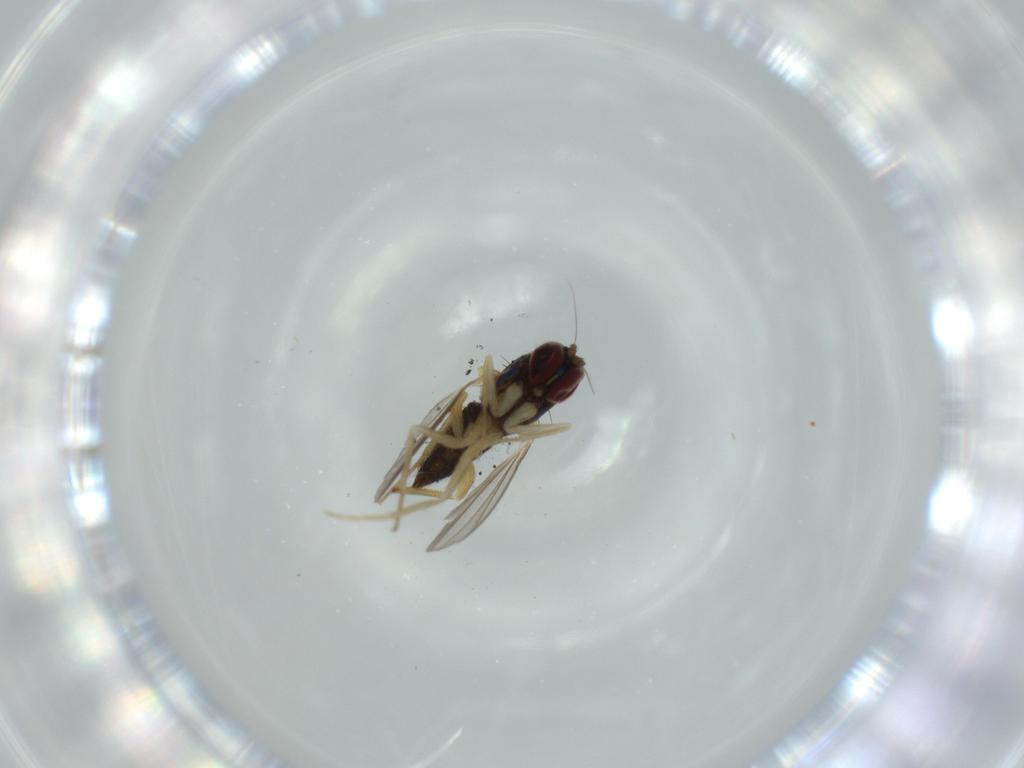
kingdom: Animalia
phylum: Arthropoda
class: Insecta
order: Diptera
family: Dolichopodidae
